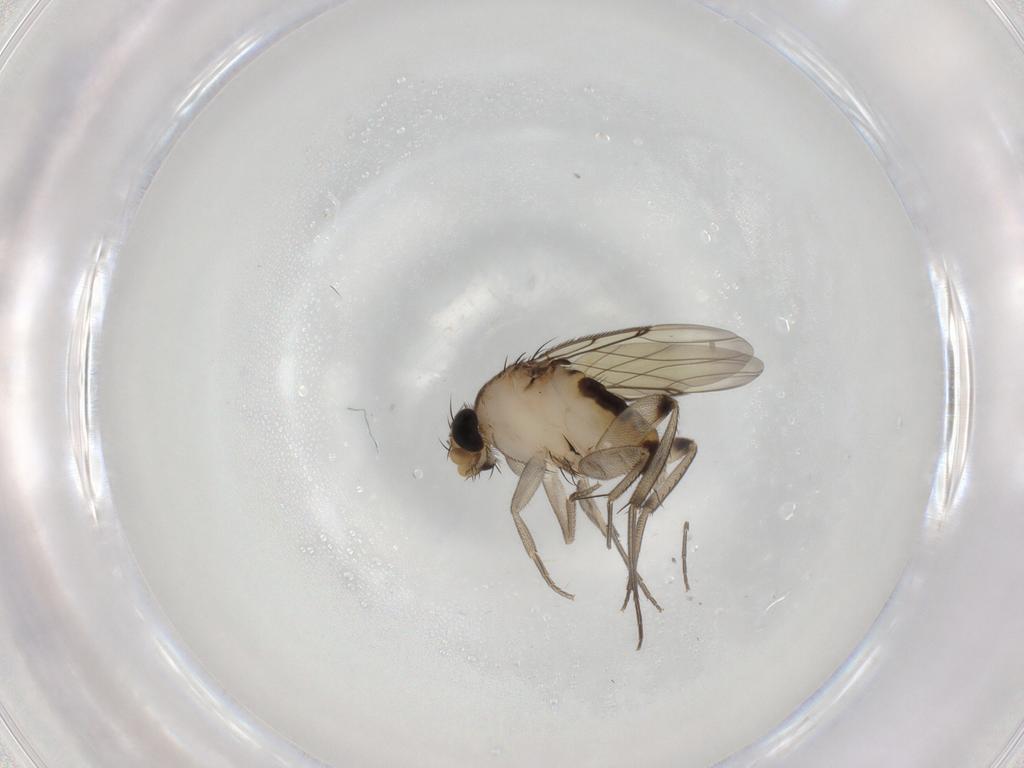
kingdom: Animalia
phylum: Arthropoda
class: Insecta
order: Diptera
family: Phoridae
